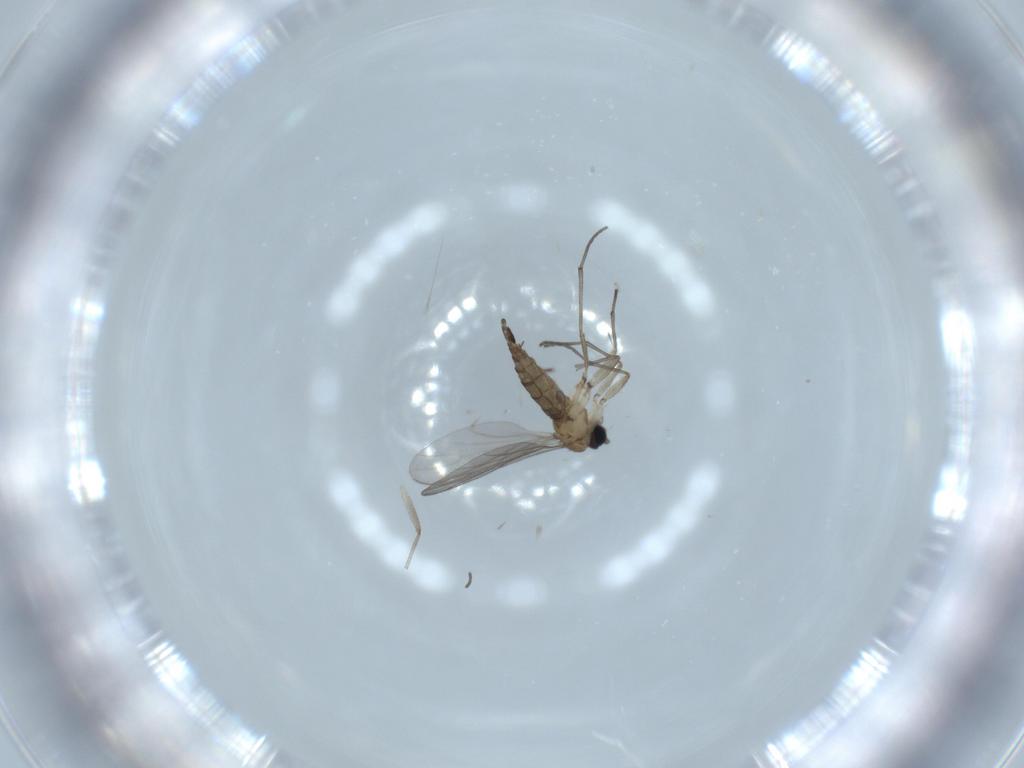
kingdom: Animalia
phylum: Arthropoda
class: Insecta
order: Diptera
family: Sciaridae
